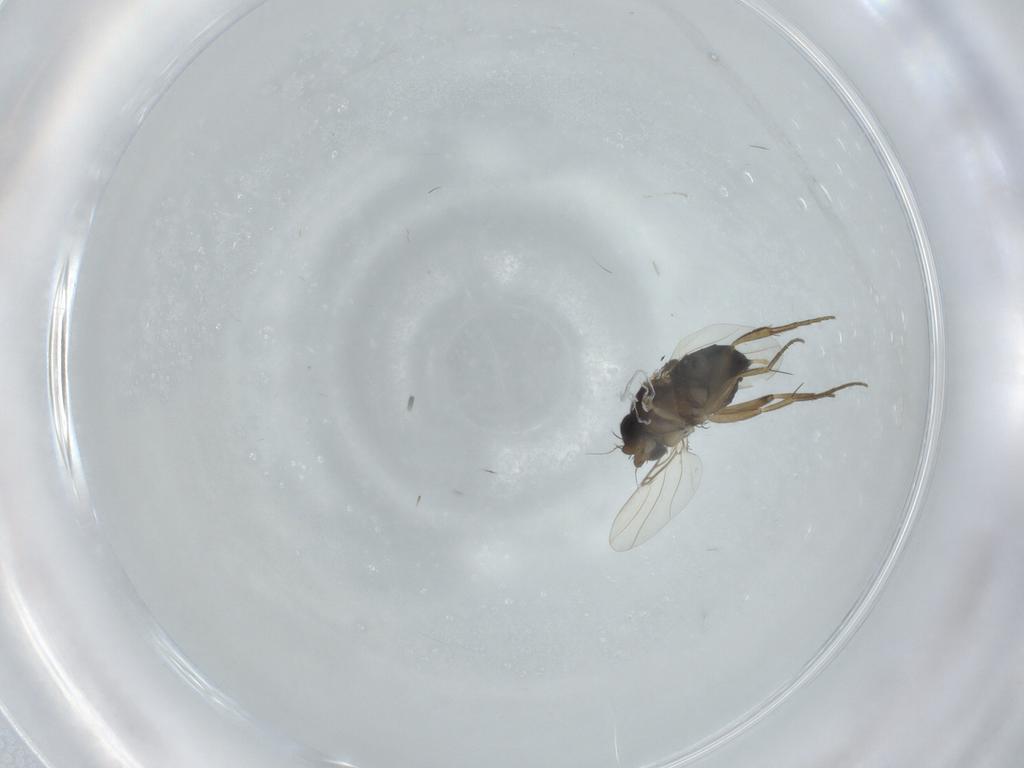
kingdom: Animalia
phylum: Arthropoda
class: Insecta
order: Diptera
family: Phoridae
